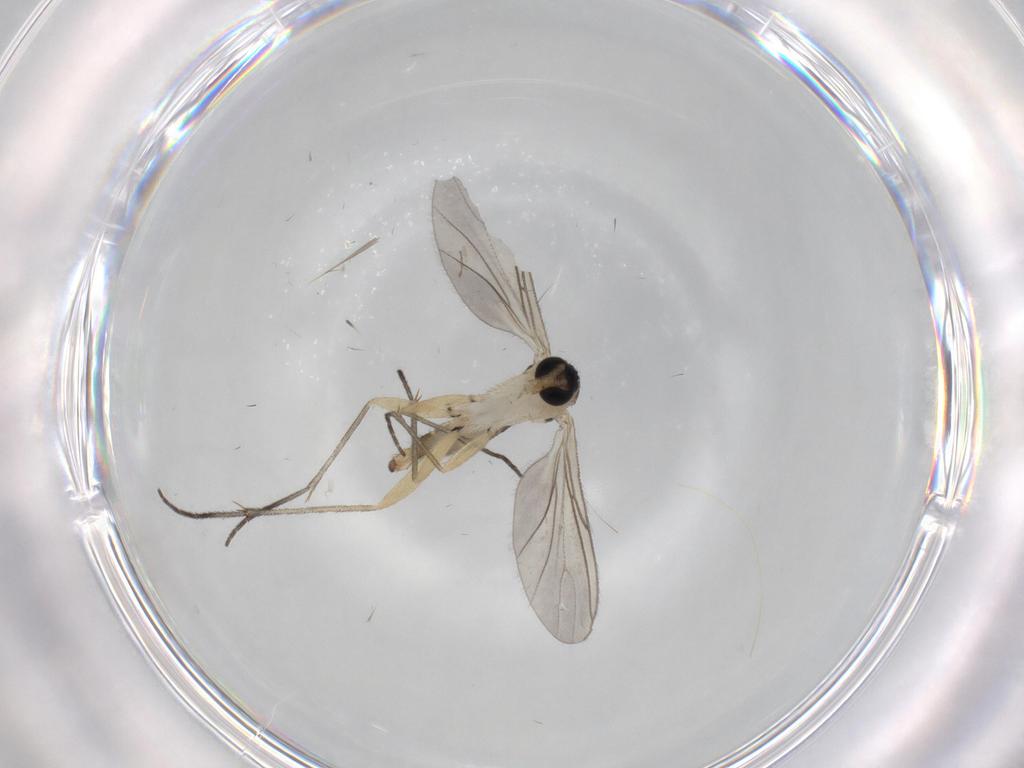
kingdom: Animalia
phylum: Arthropoda
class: Insecta
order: Diptera
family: Sciaridae
